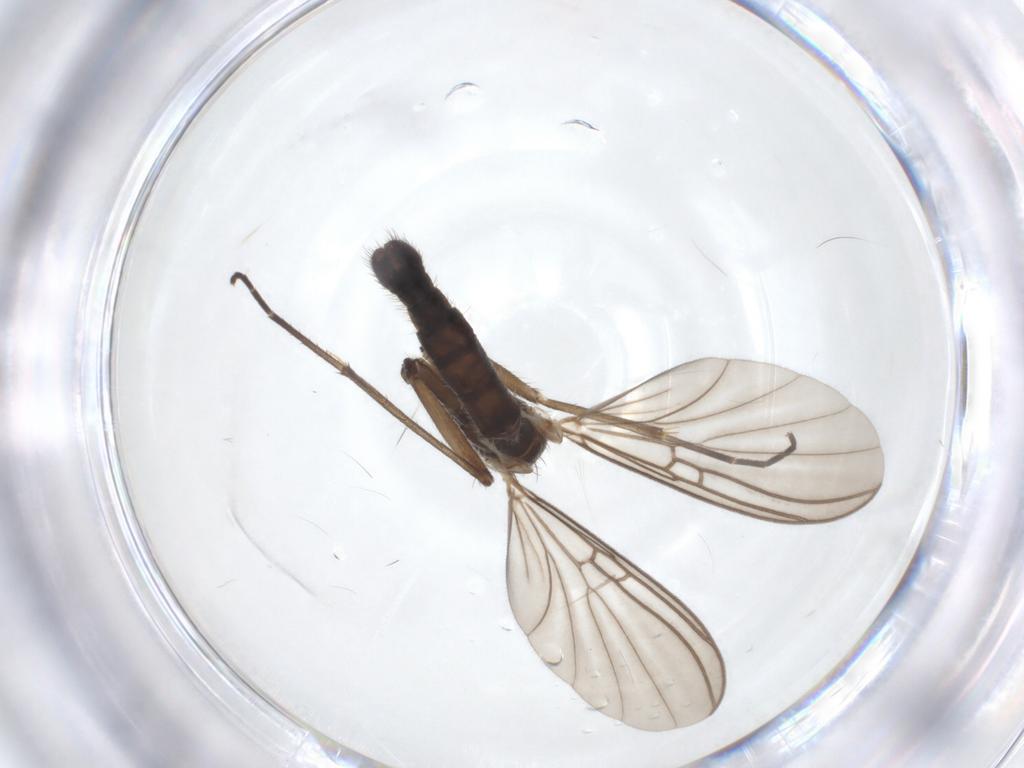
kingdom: Animalia
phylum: Arthropoda
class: Insecta
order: Diptera
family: Mycetophilidae
